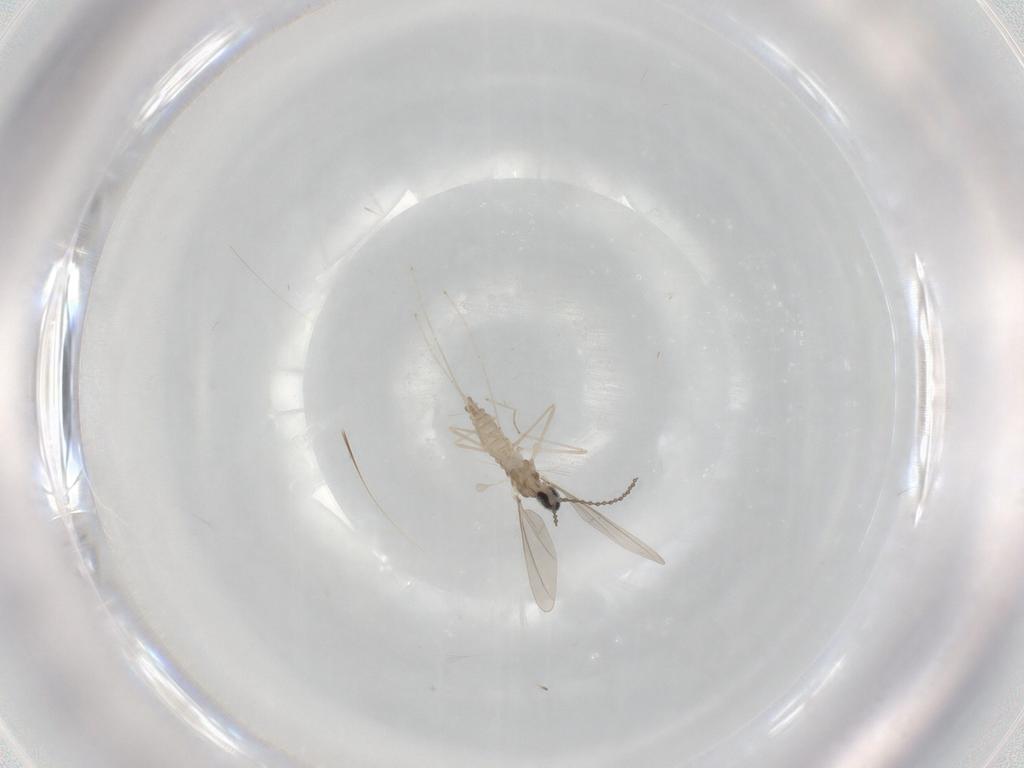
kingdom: Animalia
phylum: Arthropoda
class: Insecta
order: Diptera
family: Cecidomyiidae
